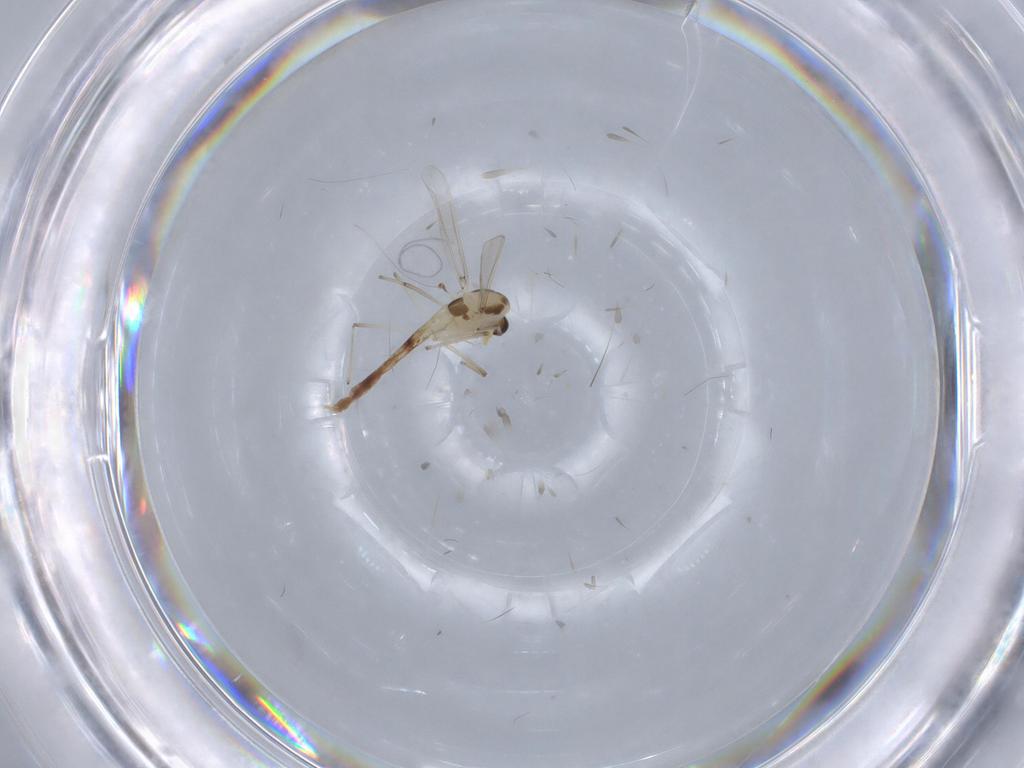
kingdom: Animalia
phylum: Arthropoda
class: Insecta
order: Diptera
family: Chironomidae
